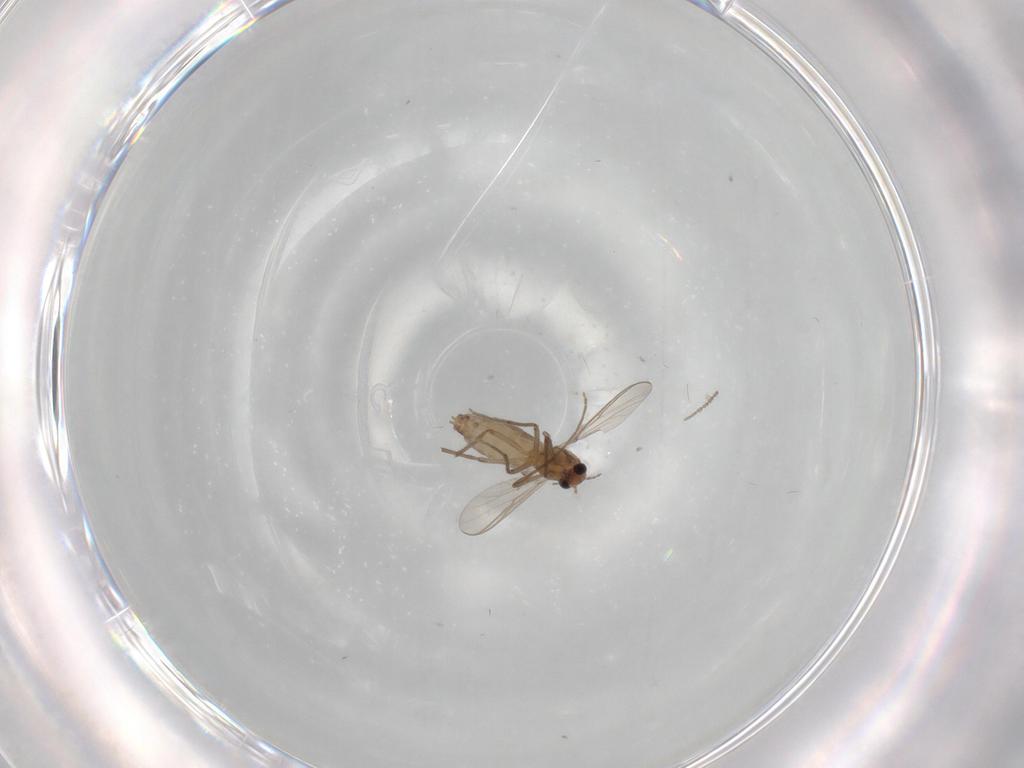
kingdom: Animalia
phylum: Arthropoda
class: Insecta
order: Diptera
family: Chironomidae
